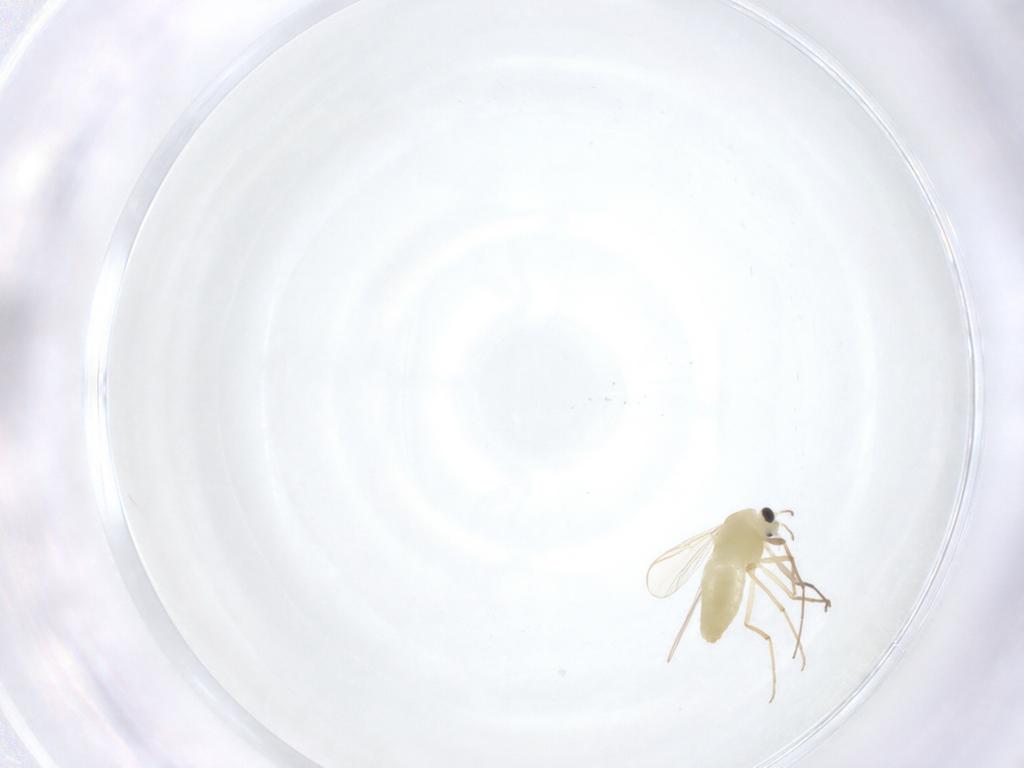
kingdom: Animalia
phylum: Arthropoda
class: Insecta
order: Diptera
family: Chironomidae
